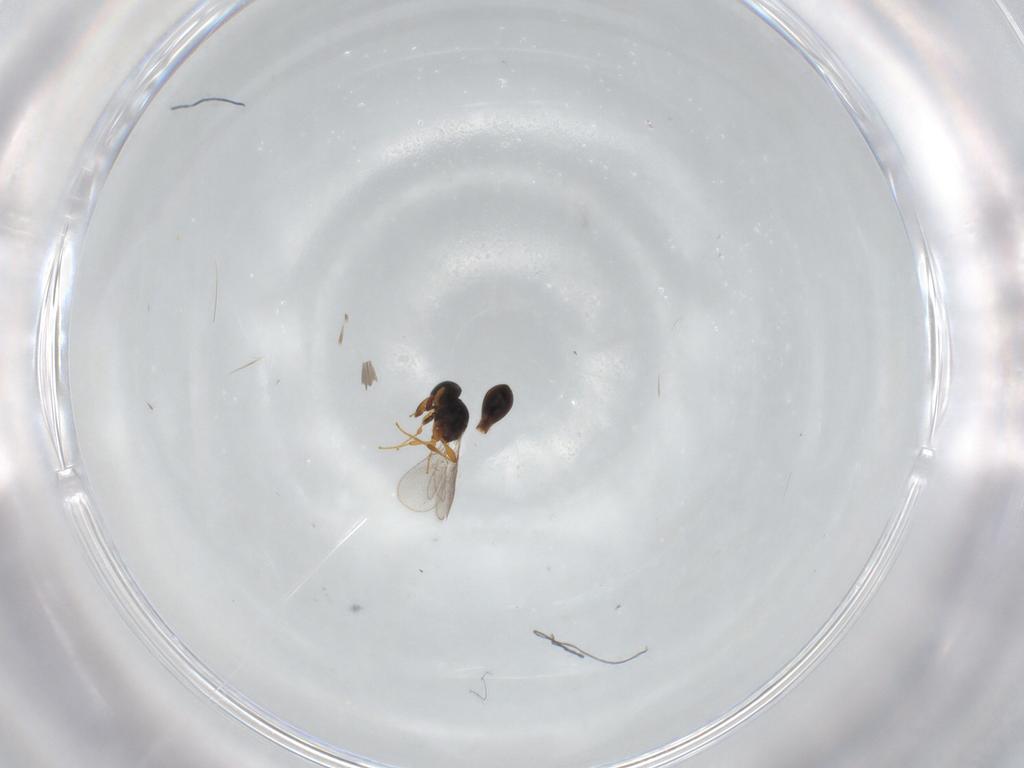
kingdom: Animalia
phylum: Arthropoda
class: Insecta
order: Hymenoptera
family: Platygastridae
